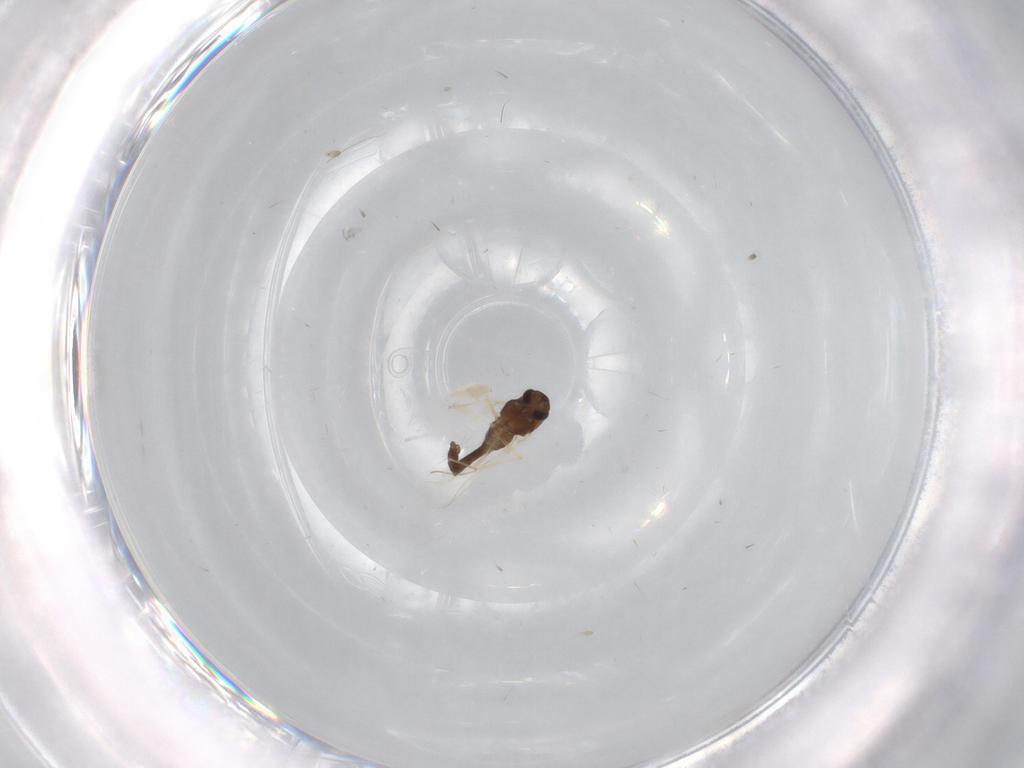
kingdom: Animalia
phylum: Arthropoda
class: Insecta
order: Diptera
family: Chironomidae
